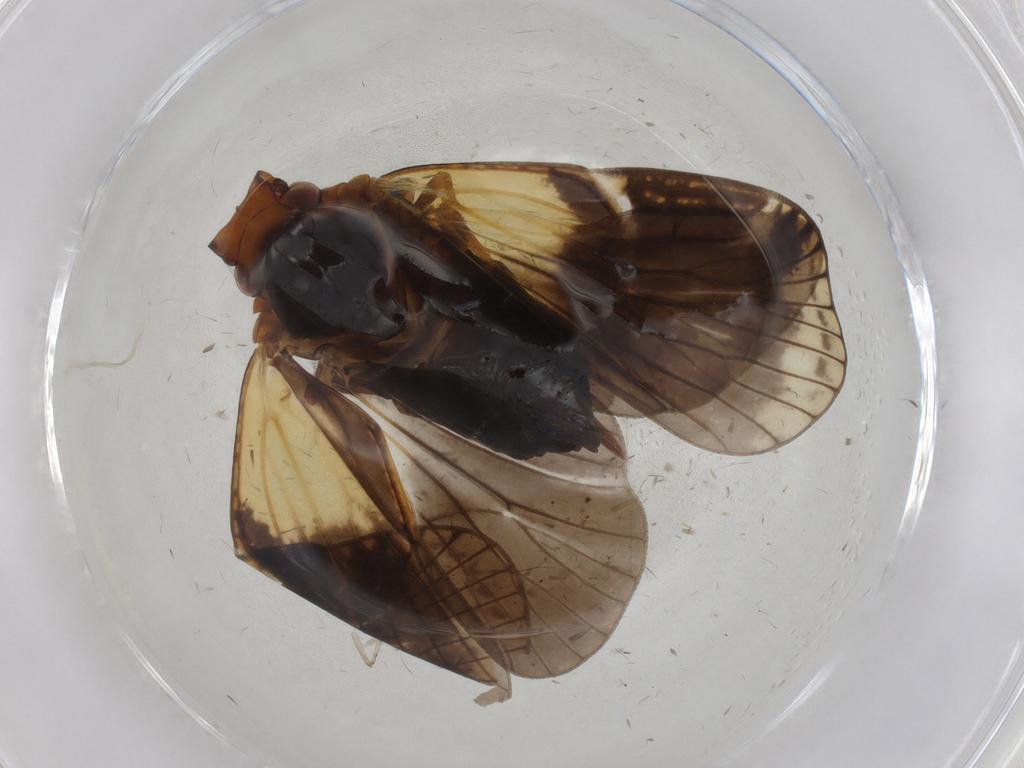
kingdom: Animalia
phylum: Arthropoda
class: Insecta
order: Hemiptera
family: Cixiidae
